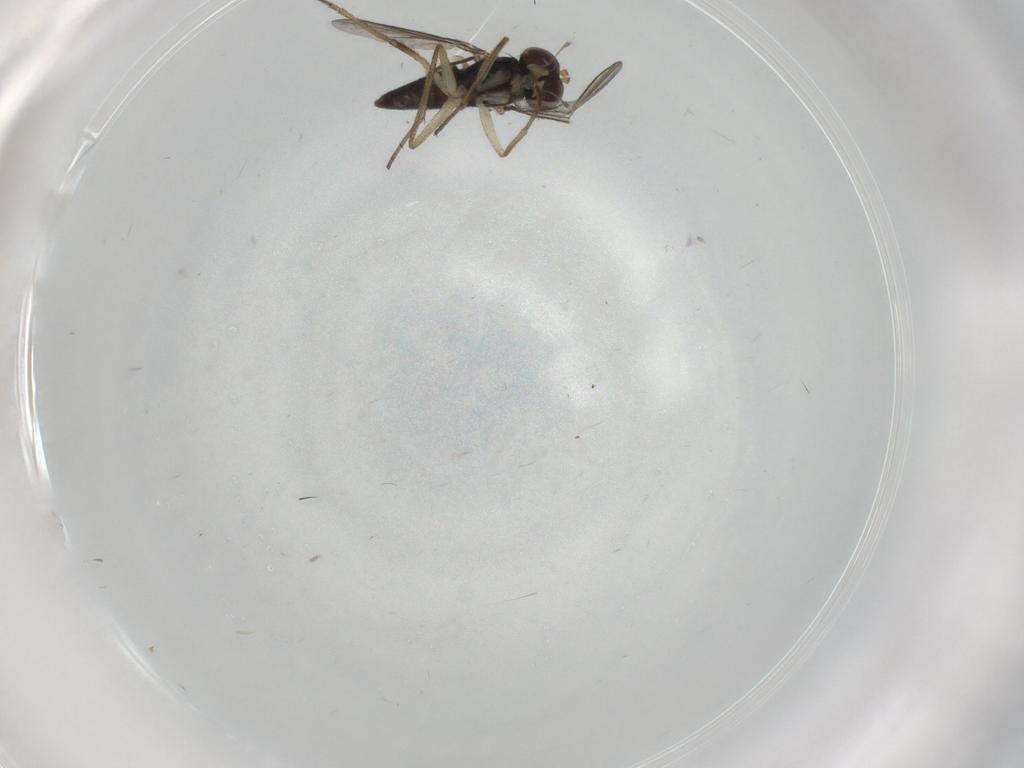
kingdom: Animalia
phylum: Arthropoda
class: Insecta
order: Diptera
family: Dolichopodidae
